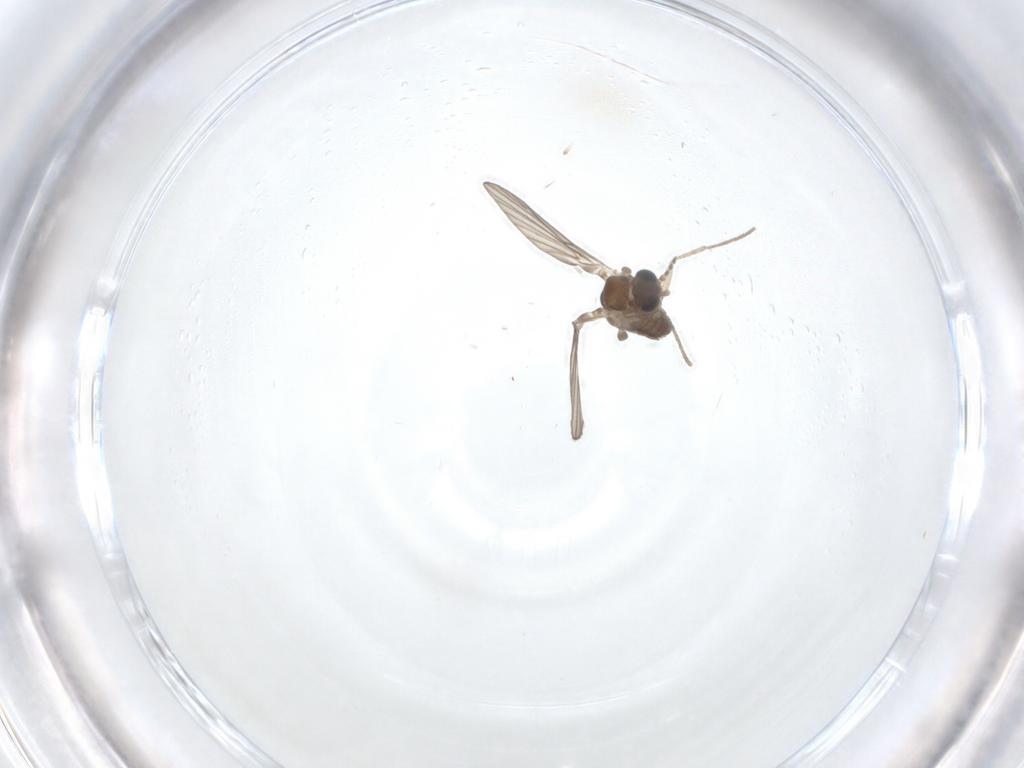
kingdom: Animalia
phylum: Arthropoda
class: Insecta
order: Diptera
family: Psychodidae
